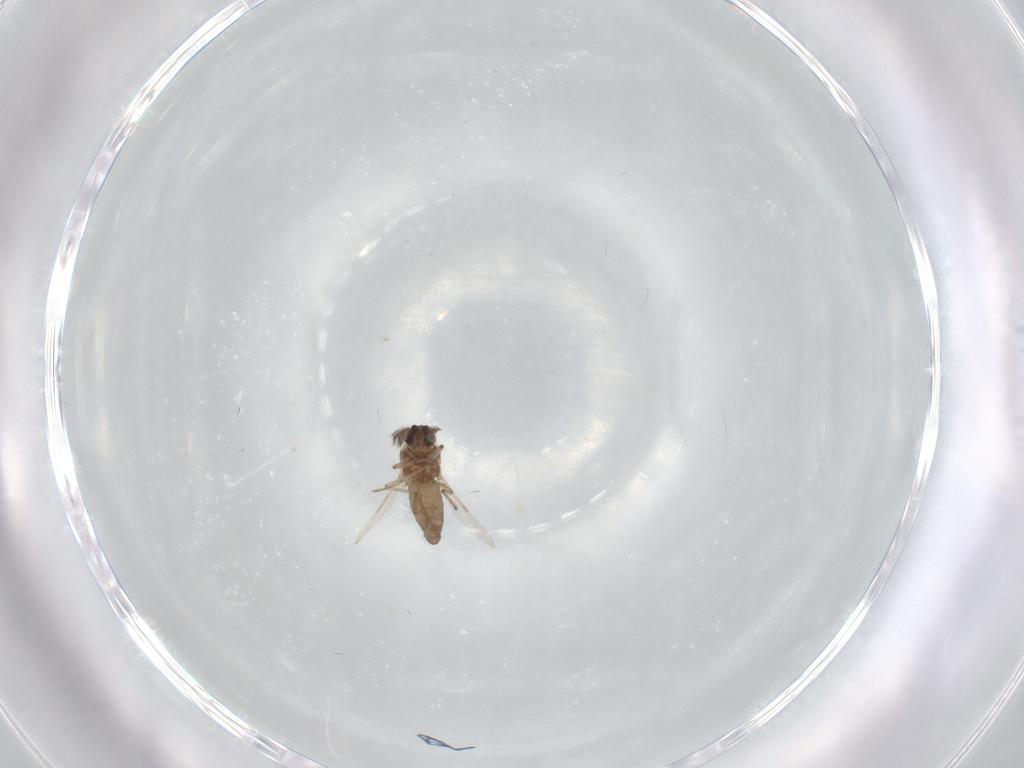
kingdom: Animalia
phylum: Arthropoda
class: Insecta
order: Diptera
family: Ceratopogonidae
